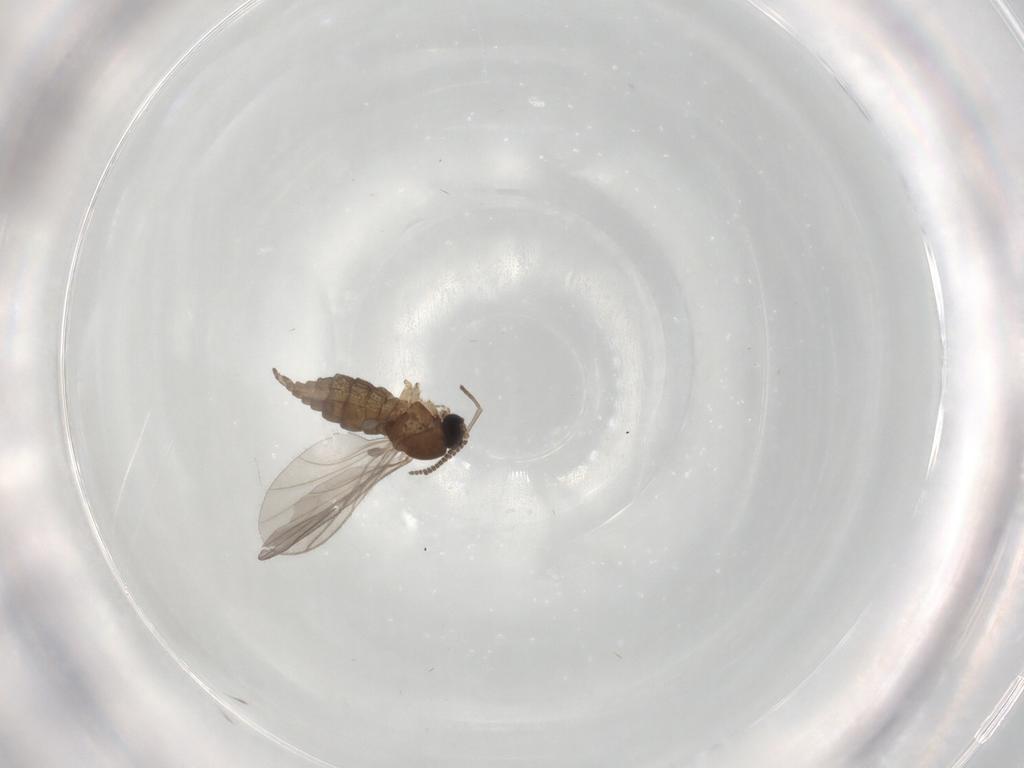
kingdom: Animalia
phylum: Arthropoda
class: Insecta
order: Diptera
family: Sciaridae
